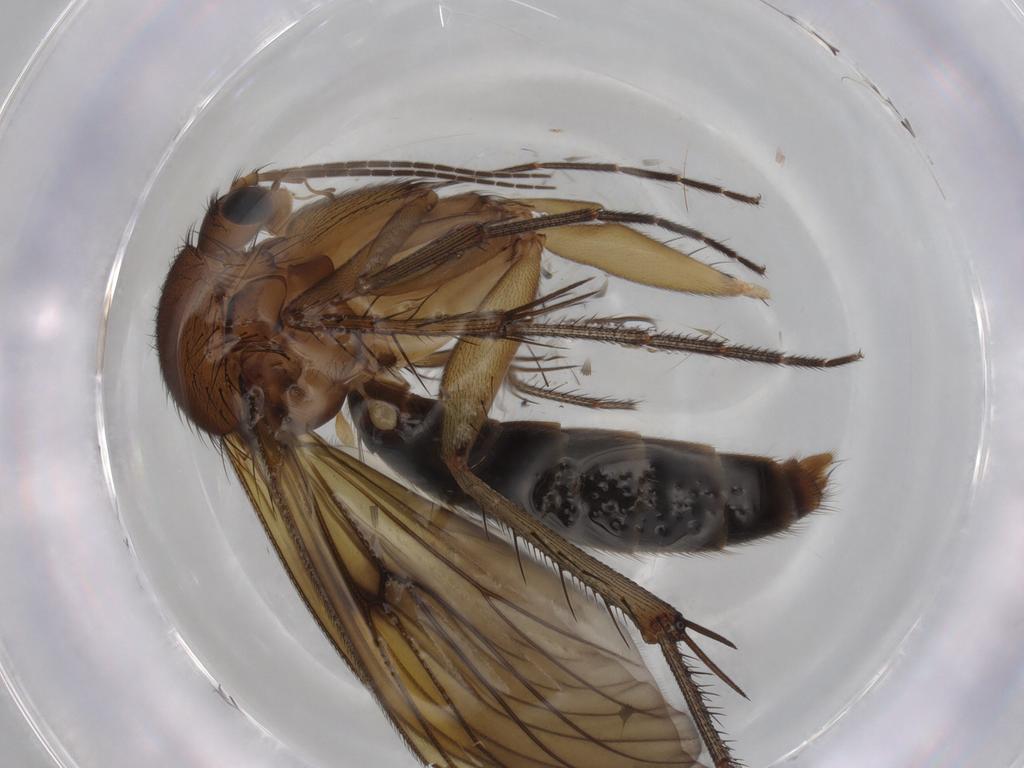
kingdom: Animalia
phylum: Arthropoda
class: Insecta
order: Diptera
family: Mycetophilidae
